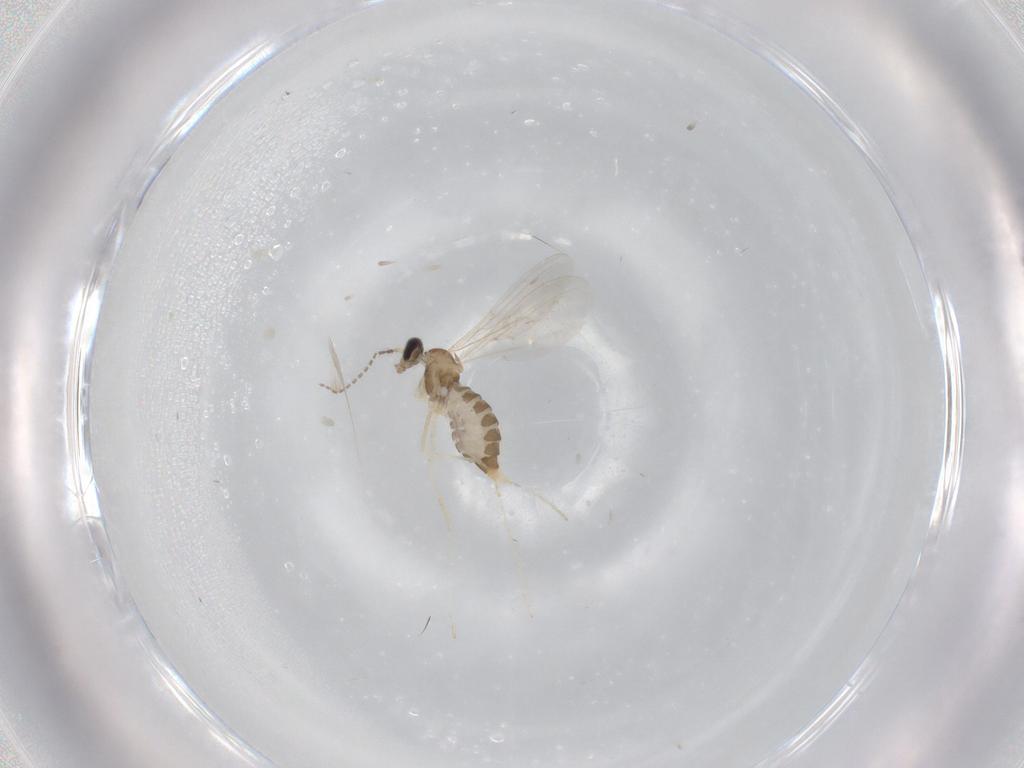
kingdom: Animalia
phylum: Arthropoda
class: Insecta
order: Diptera
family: Cecidomyiidae
